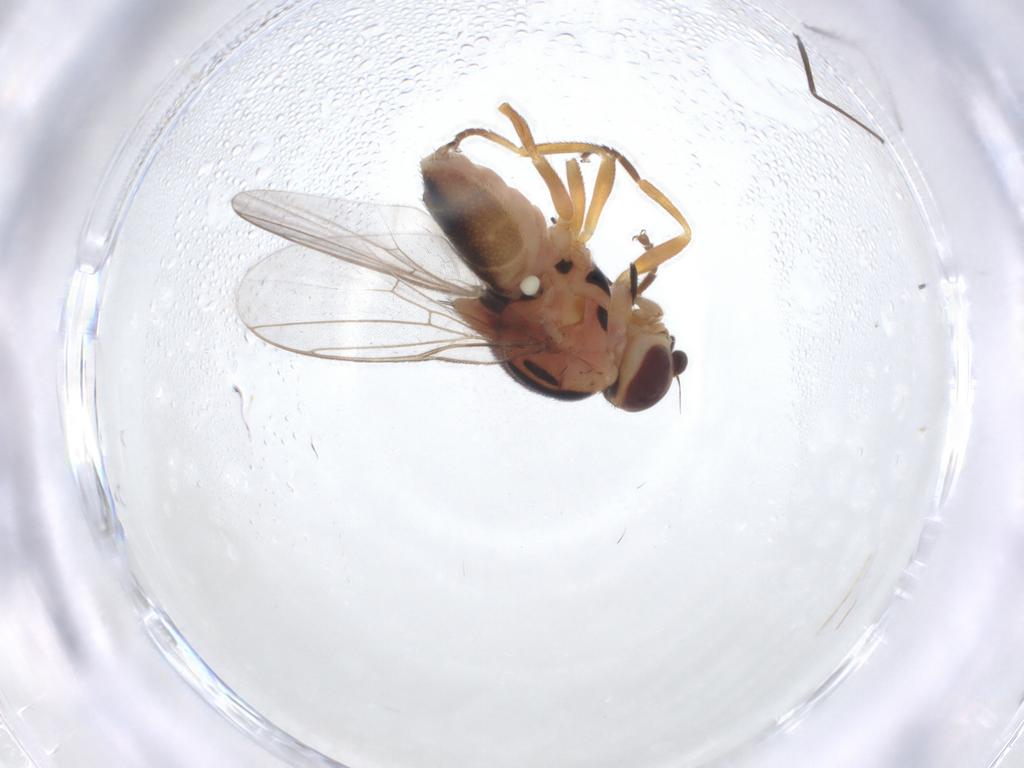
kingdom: Animalia
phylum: Arthropoda
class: Insecta
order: Diptera
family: Chloropidae
